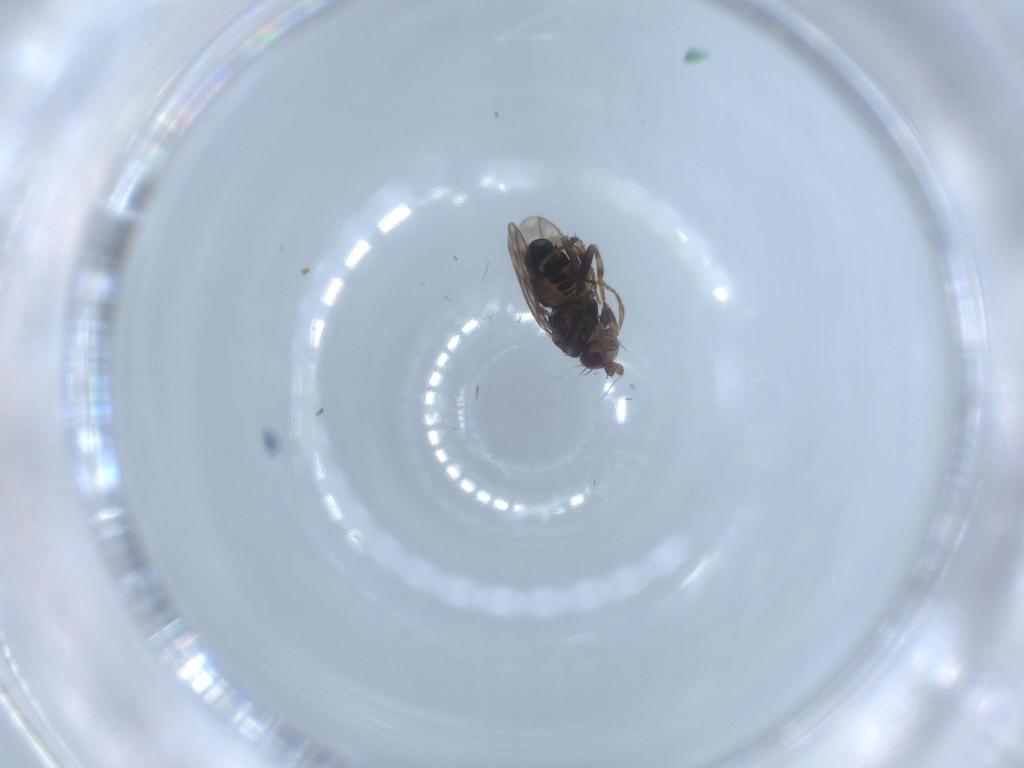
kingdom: Animalia
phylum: Arthropoda
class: Insecta
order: Diptera
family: Sphaeroceridae
